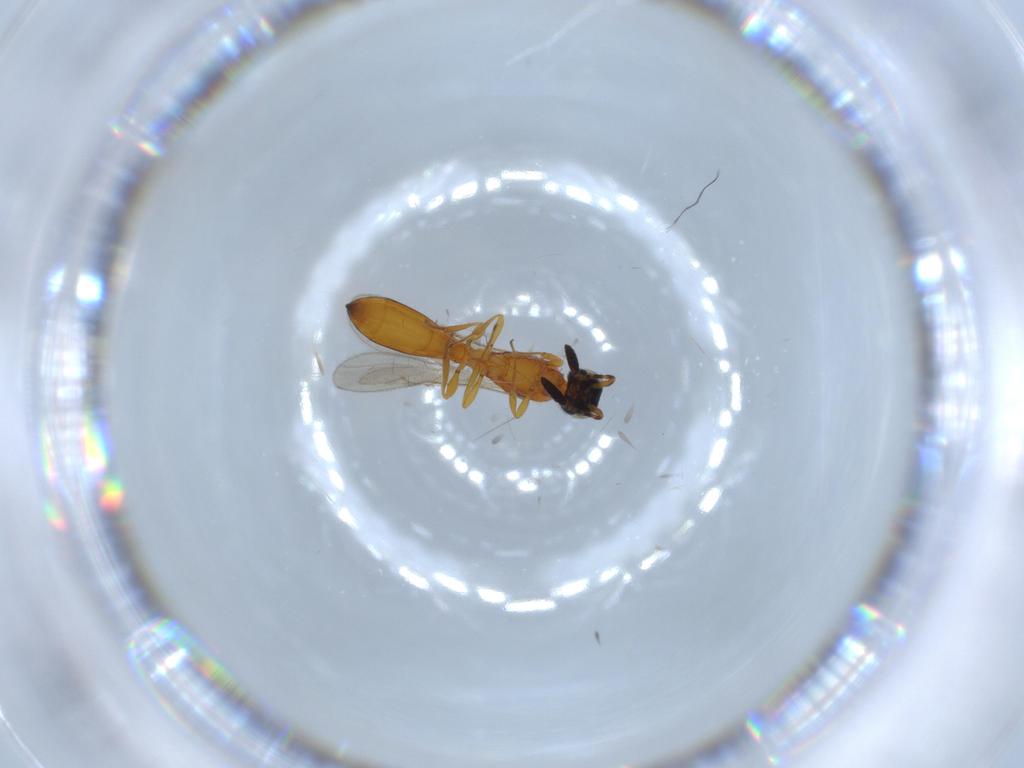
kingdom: Animalia
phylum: Arthropoda
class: Insecta
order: Hymenoptera
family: Scelionidae
